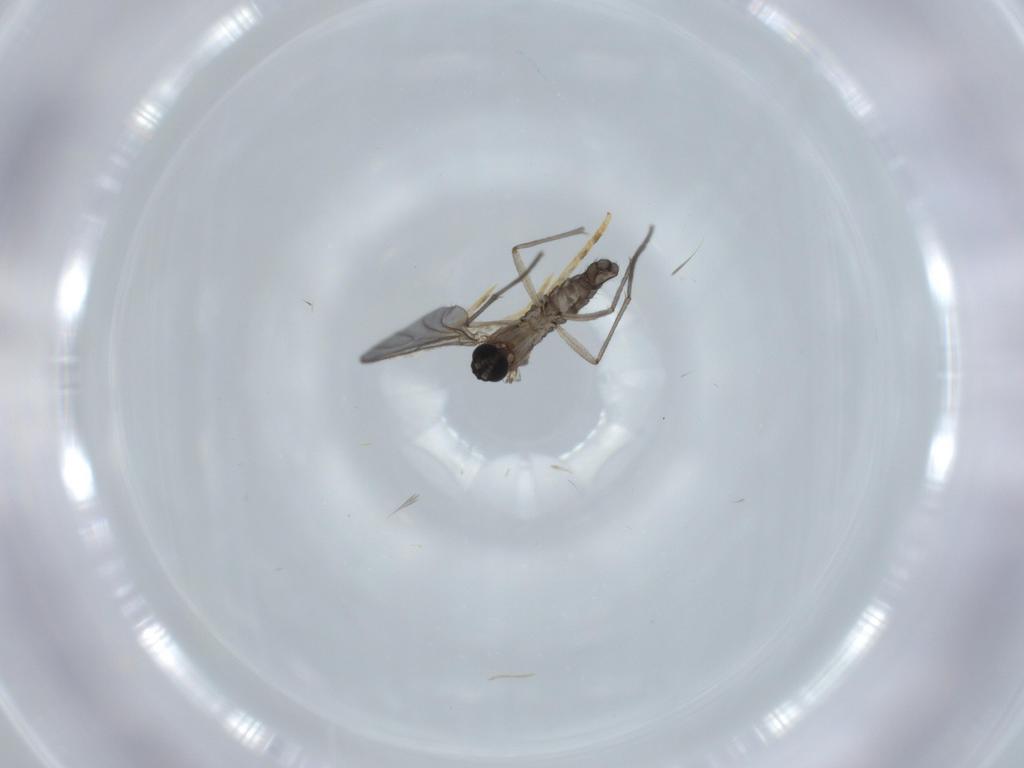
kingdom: Animalia
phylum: Arthropoda
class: Insecta
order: Diptera
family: Sciaridae
